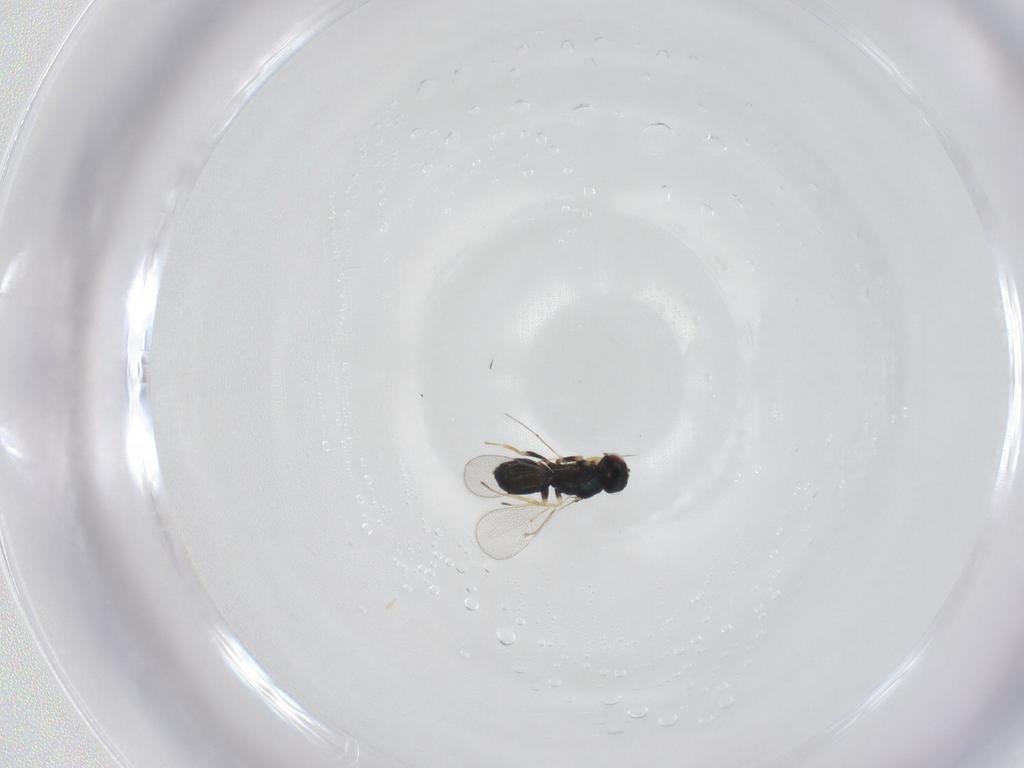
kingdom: Animalia
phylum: Arthropoda
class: Insecta
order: Hymenoptera
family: Eulophidae
